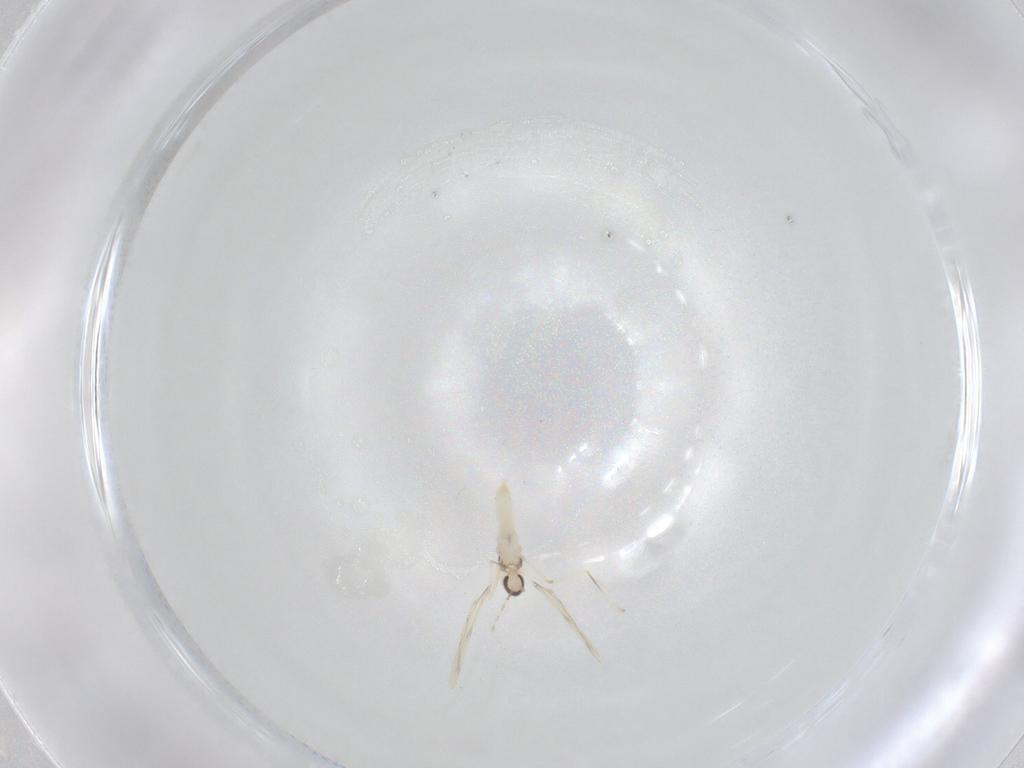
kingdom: Animalia
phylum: Arthropoda
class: Insecta
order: Diptera
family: Cecidomyiidae
